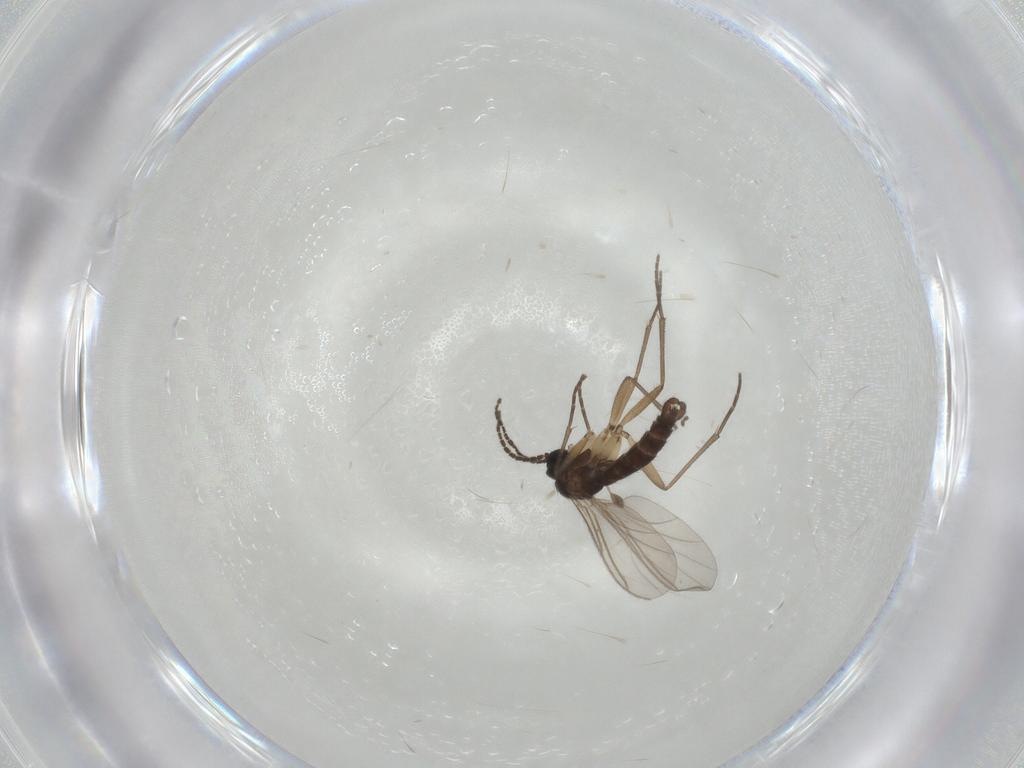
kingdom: Animalia
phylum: Arthropoda
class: Insecta
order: Diptera
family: Sciaridae
